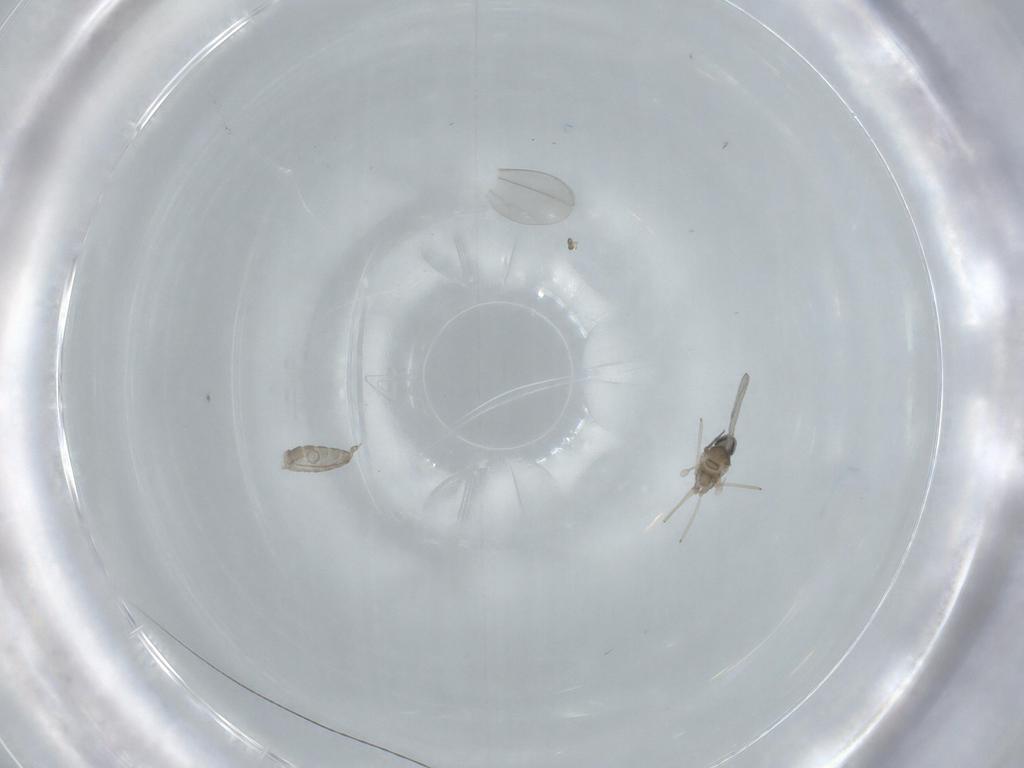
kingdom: Animalia
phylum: Arthropoda
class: Insecta
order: Diptera
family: Cecidomyiidae
